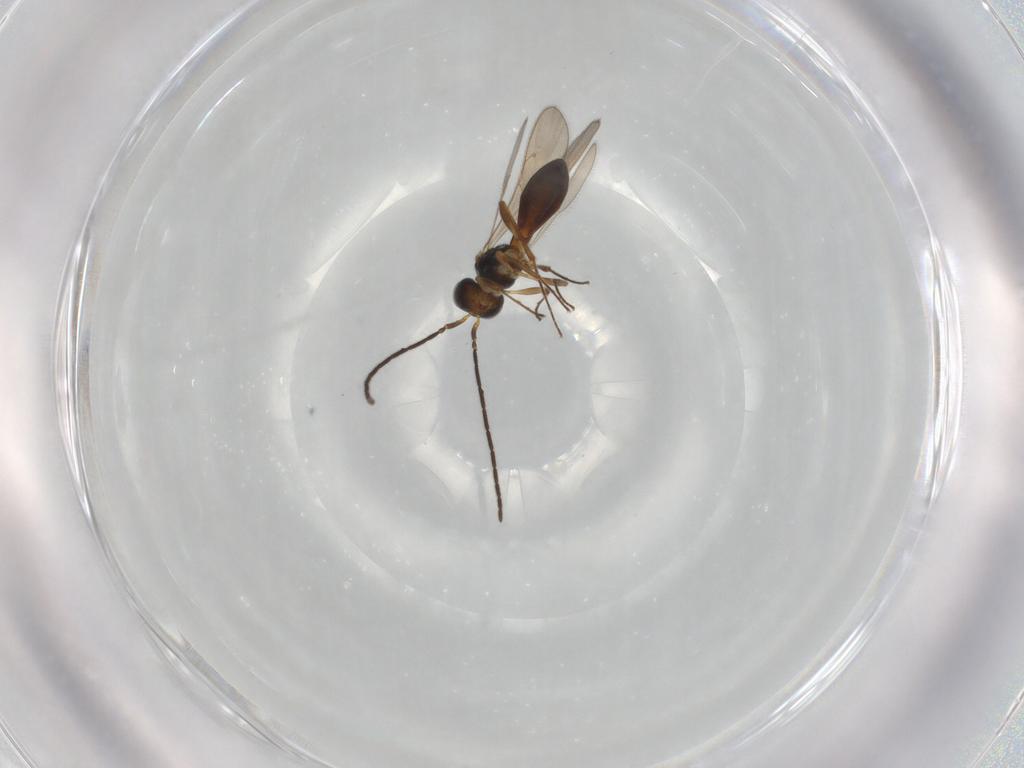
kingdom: Animalia
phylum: Arthropoda
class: Insecta
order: Hymenoptera
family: Scelionidae
